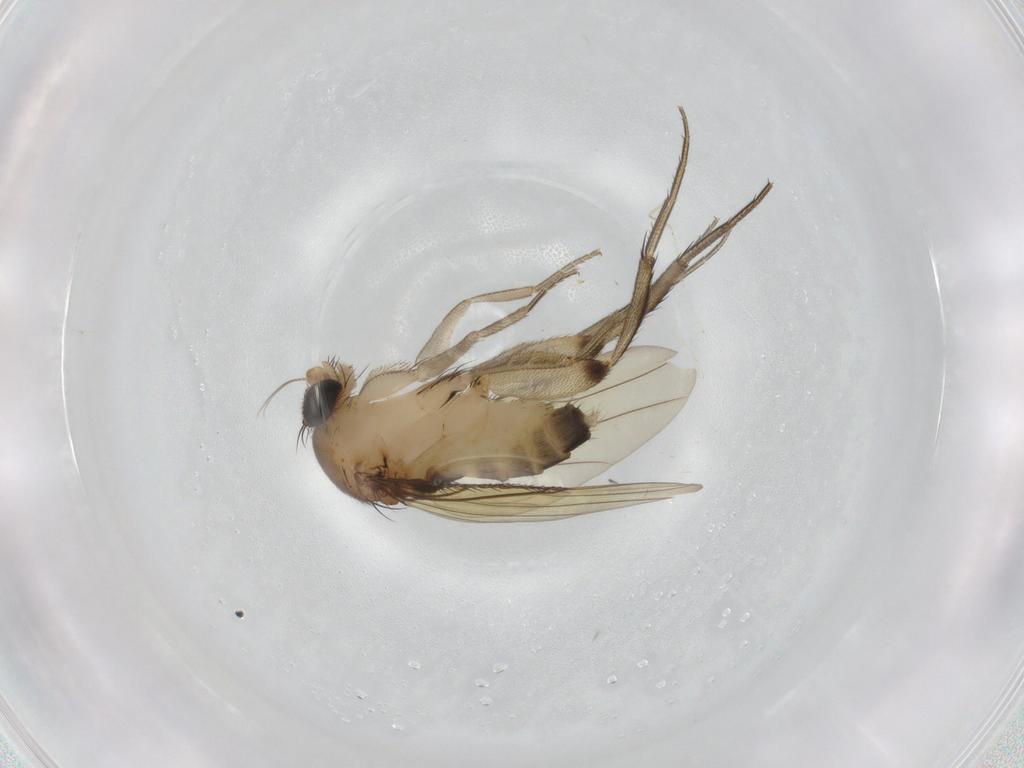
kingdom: Animalia
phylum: Arthropoda
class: Insecta
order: Diptera
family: Phoridae
